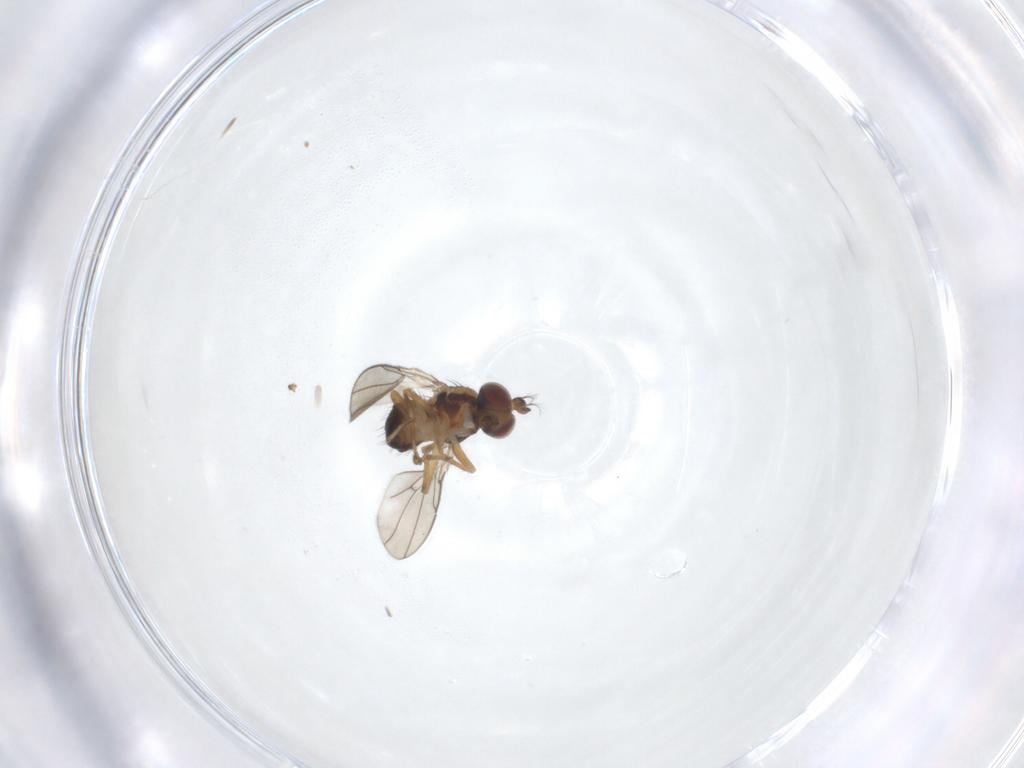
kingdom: Animalia
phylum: Arthropoda
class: Insecta
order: Diptera
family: Ephydridae
